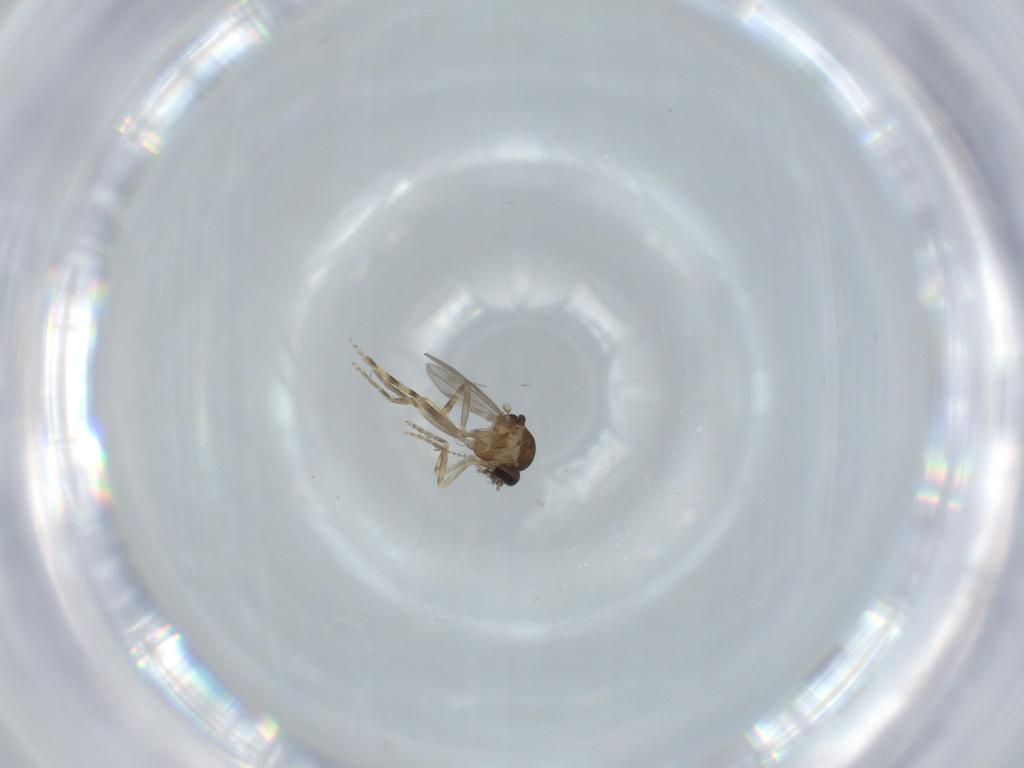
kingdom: Animalia
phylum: Arthropoda
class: Insecta
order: Diptera
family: Ceratopogonidae
